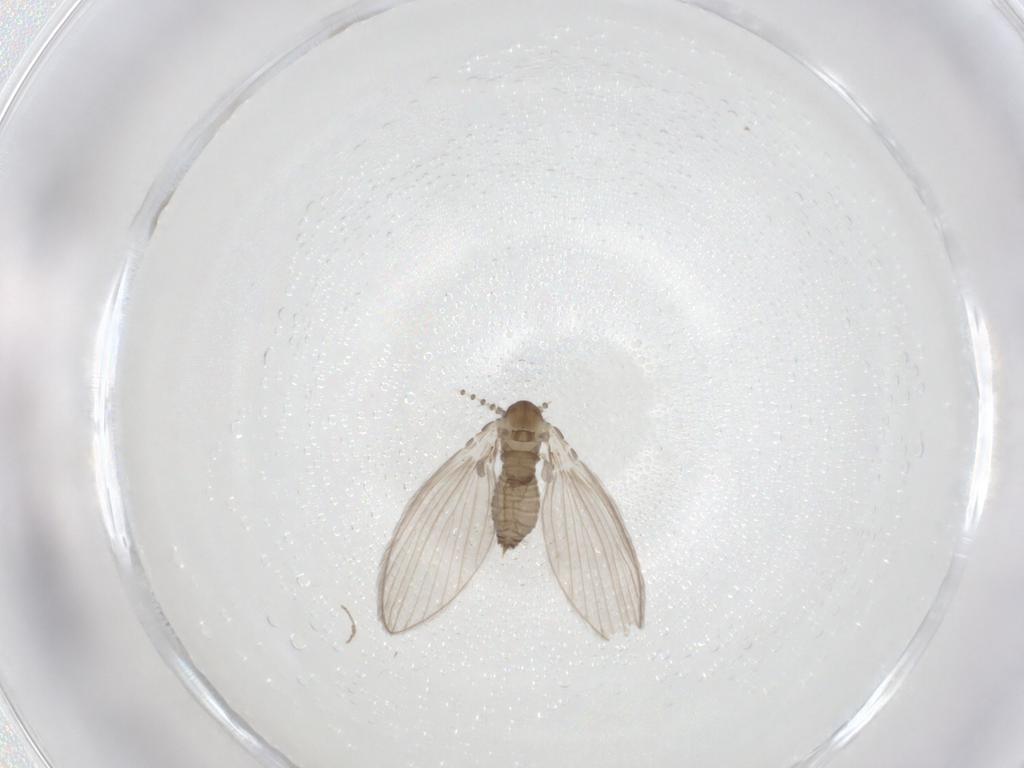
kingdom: Animalia
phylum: Arthropoda
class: Insecta
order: Diptera
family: Psychodidae
